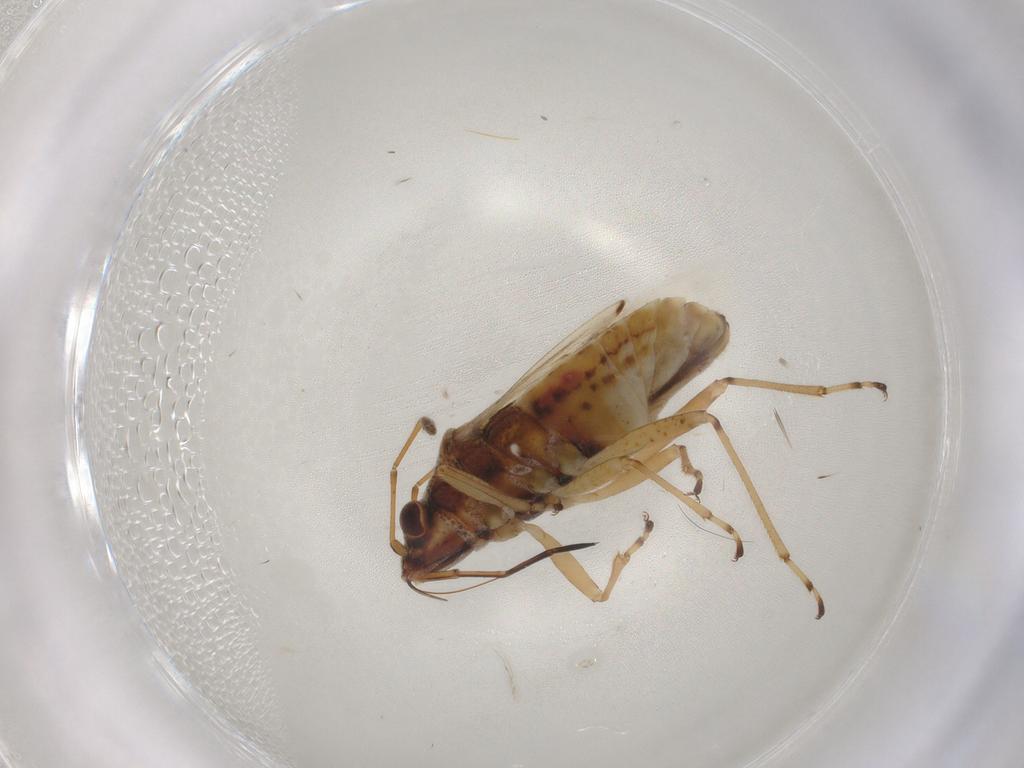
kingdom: Animalia
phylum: Arthropoda
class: Insecta
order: Hemiptera
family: Lygaeidae
